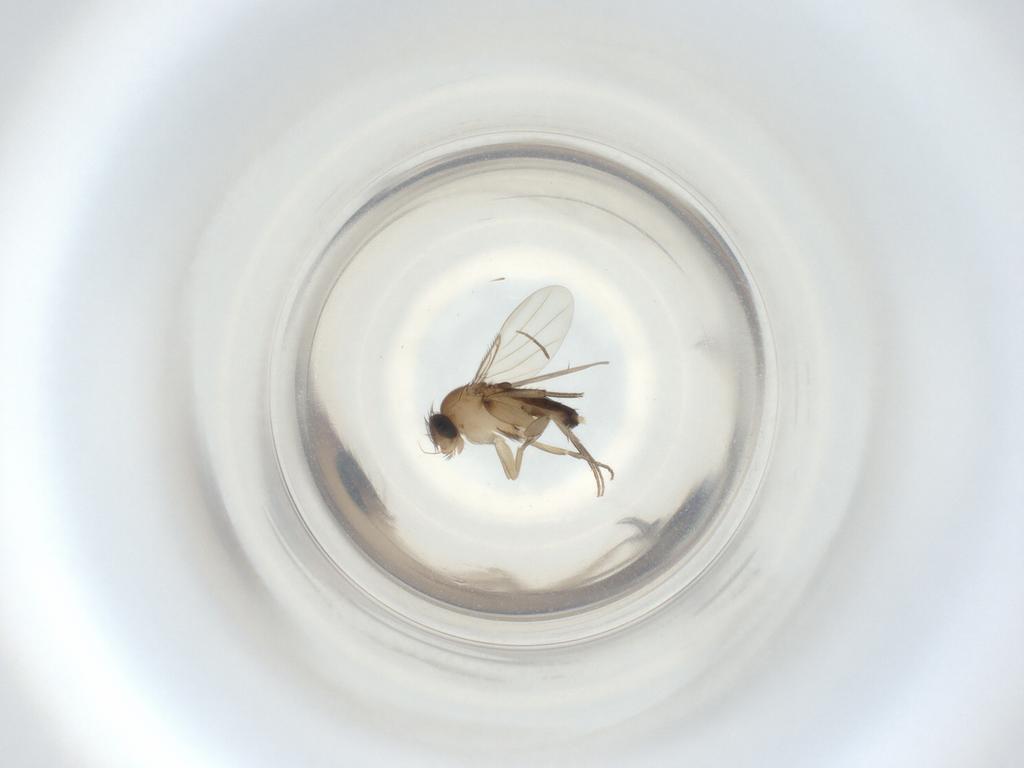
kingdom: Animalia
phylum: Arthropoda
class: Insecta
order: Diptera
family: Phoridae
